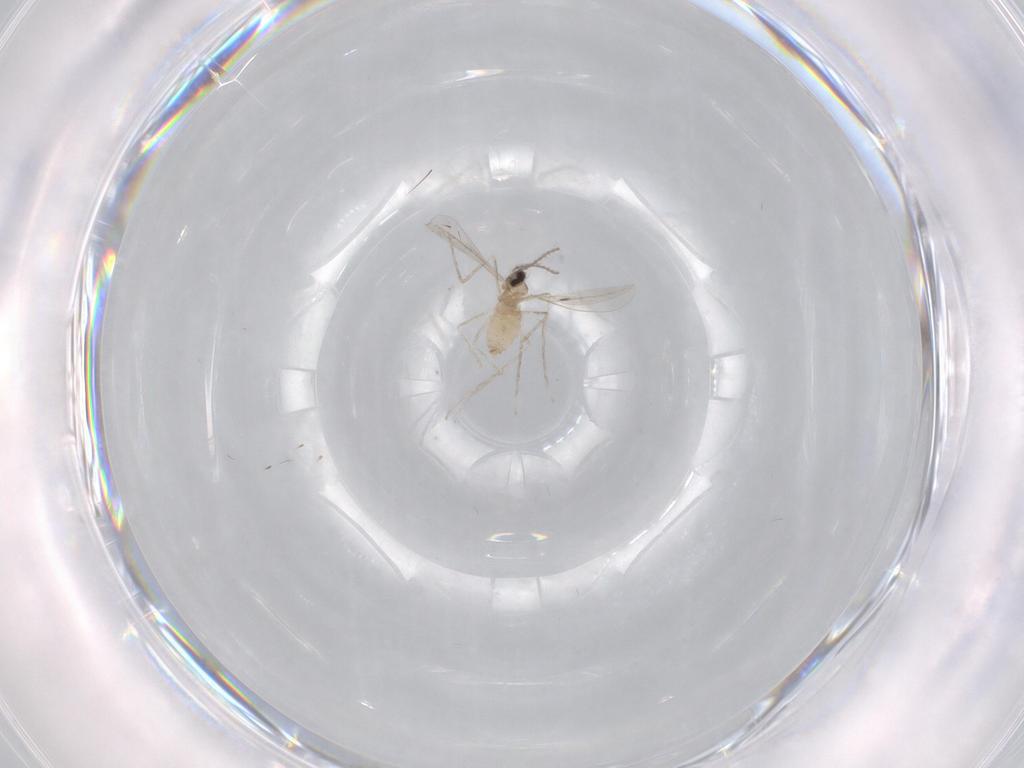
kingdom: Animalia
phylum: Arthropoda
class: Insecta
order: Diptera
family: Cecidomyiidae
